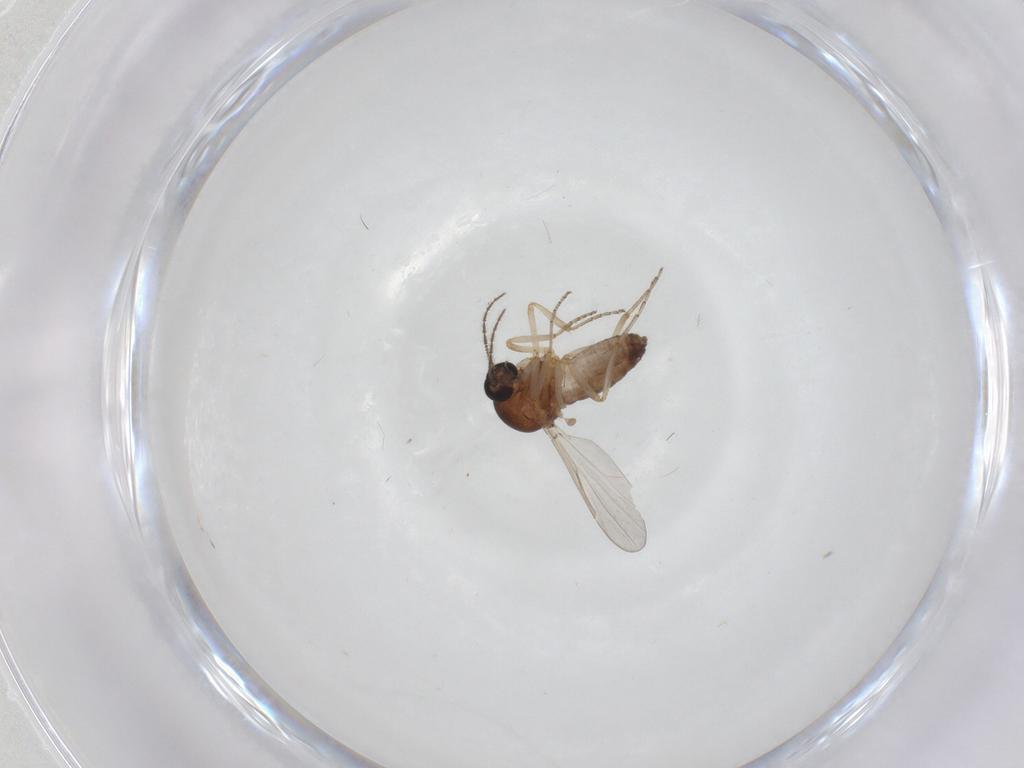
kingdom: Animalia
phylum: Arthropoda
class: Insecta
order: Diptera
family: Ceratopogonidae
